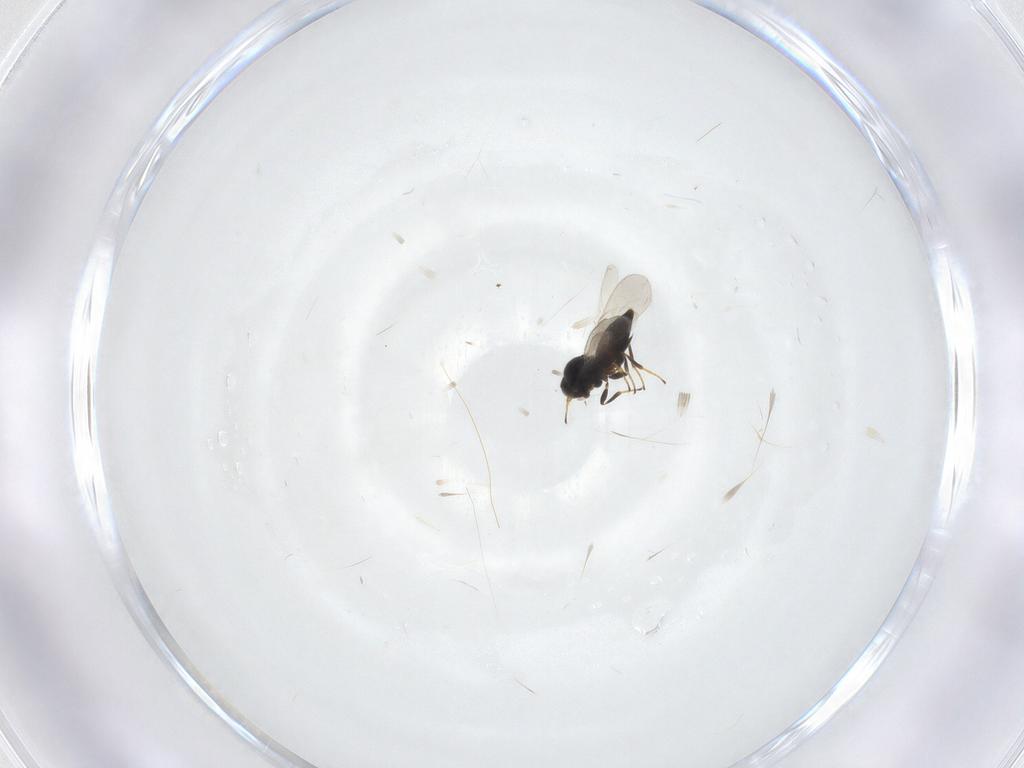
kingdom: Animalia
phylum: Arthropoda
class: Insecta
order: Hymenoptera
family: Platygastridae
